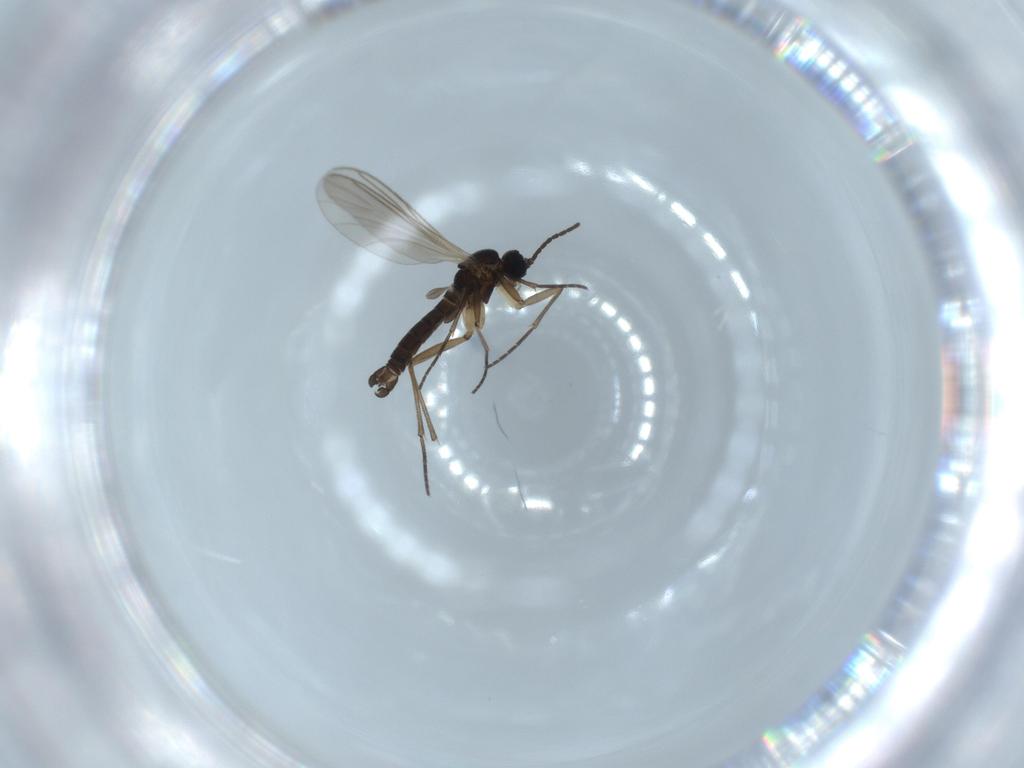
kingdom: Animalia
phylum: Arthropoda
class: Insecta
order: Diptera
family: Sciaridae
